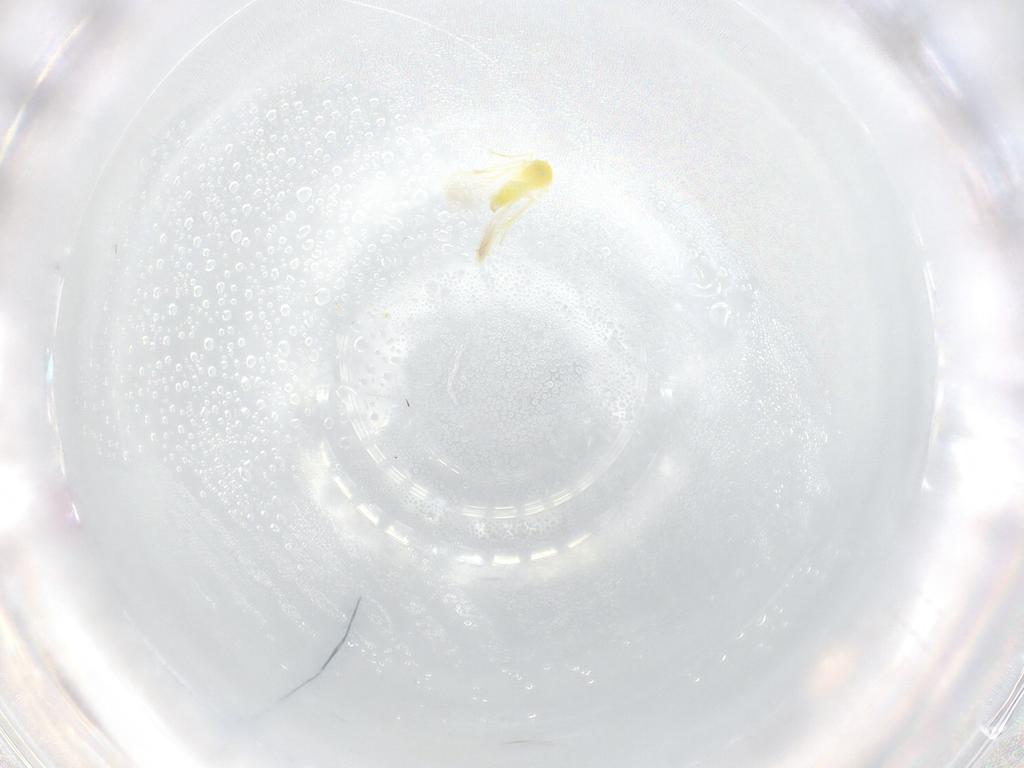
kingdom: Animalia
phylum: Arthropoda
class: Insecta
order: Hemiptera
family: Aleyrodidae
